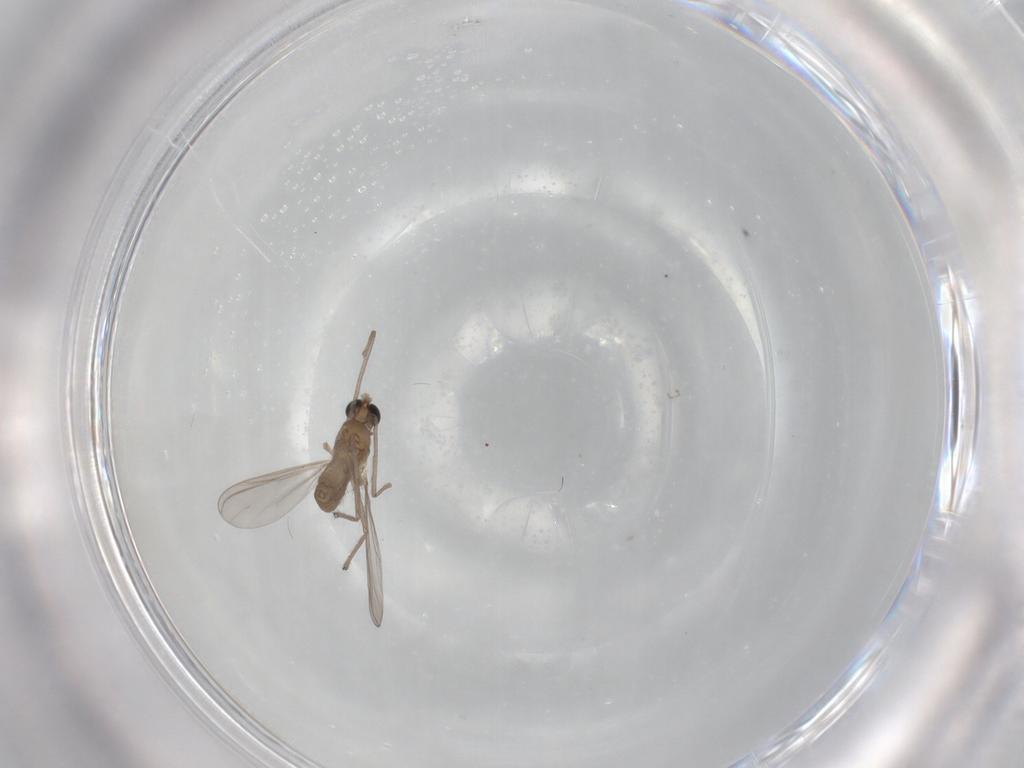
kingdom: Animalia
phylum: Arthropoda
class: Insecta
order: Diptera
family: Chironomidae
